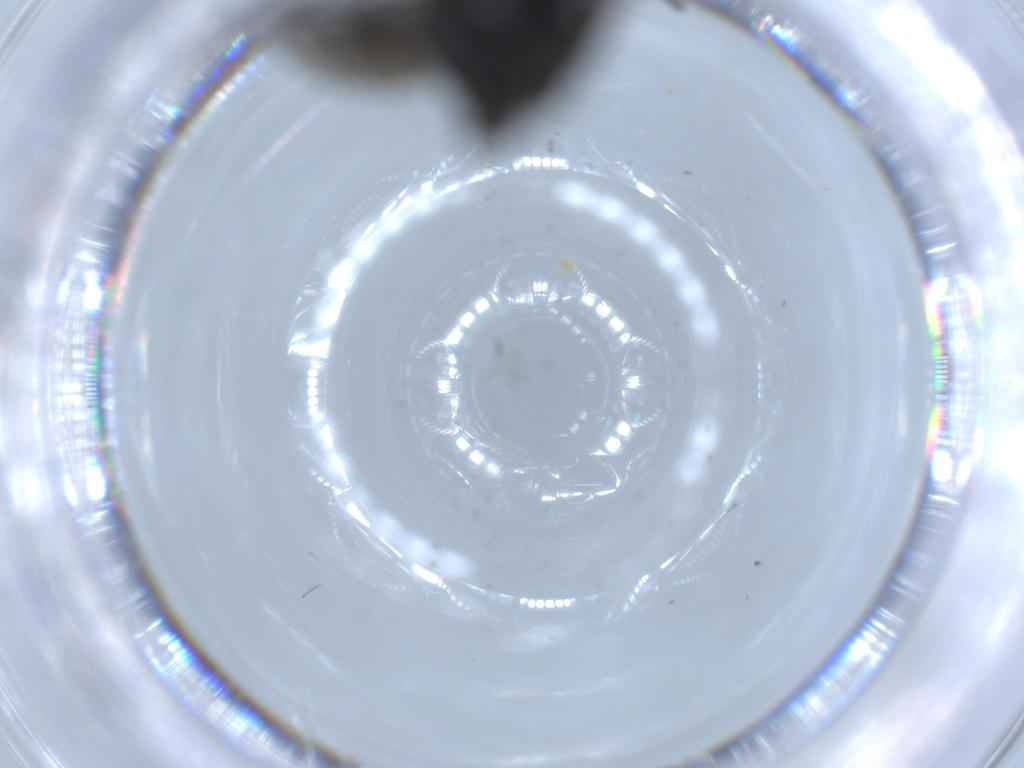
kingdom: Animalia
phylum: Arthropoda
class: Insecta
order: Diptera
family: Sciaridae
